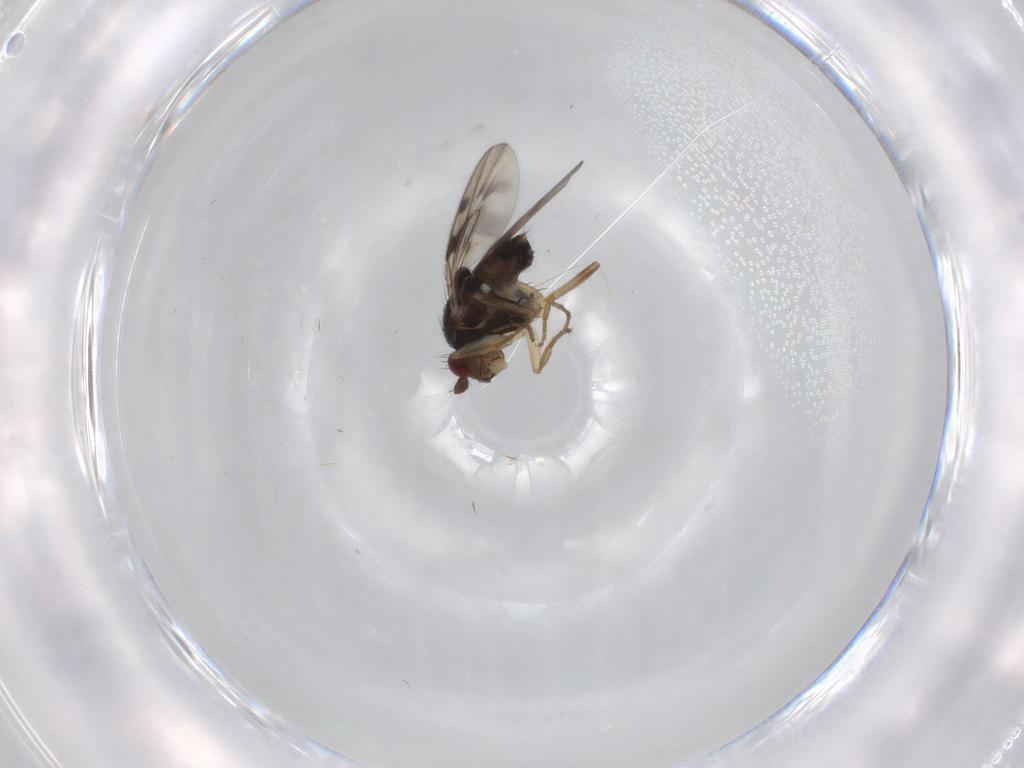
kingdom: Animalia
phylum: Arthropoda
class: Insecta
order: Diptera
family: Sphaeroceridae
